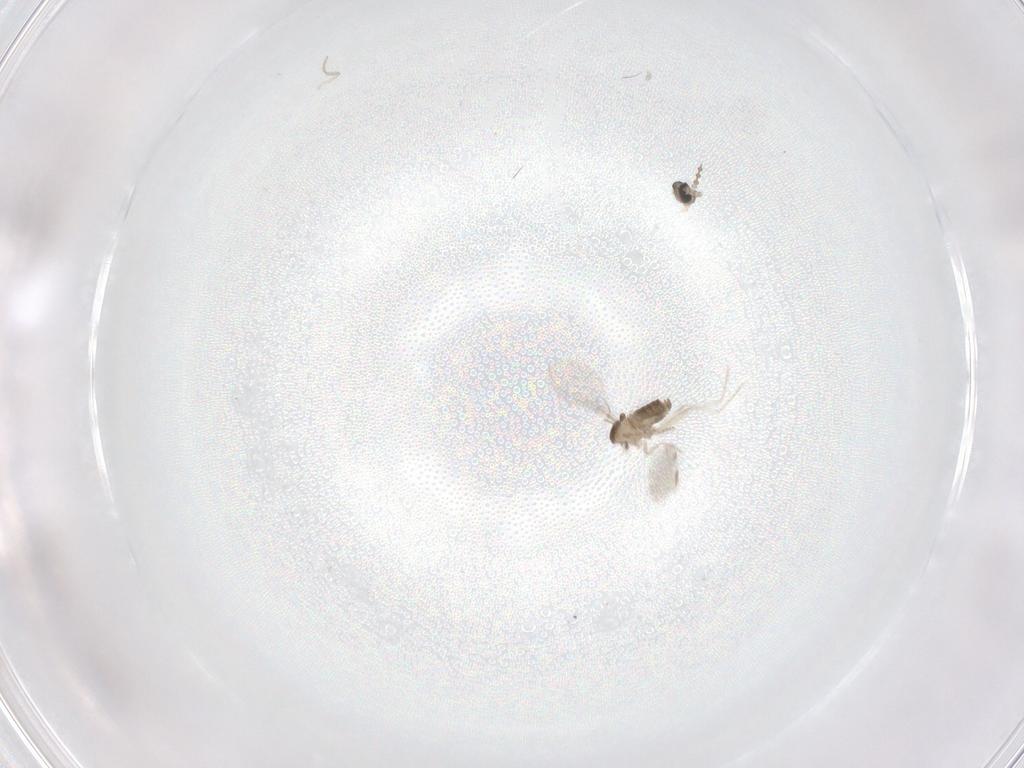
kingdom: Animalia
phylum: Arthropoda
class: Insecta
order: Diptera
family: Cecidomyiidae
